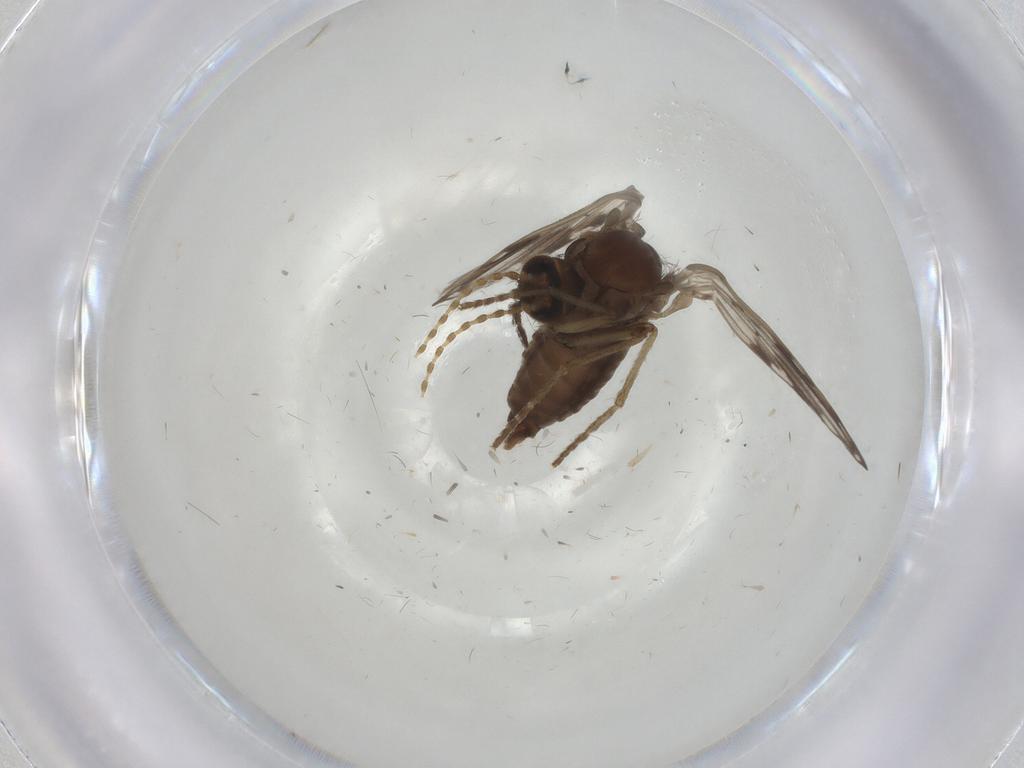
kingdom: Animalia
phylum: Arthropoda
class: Insecta
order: Diptera
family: Psychodidae
